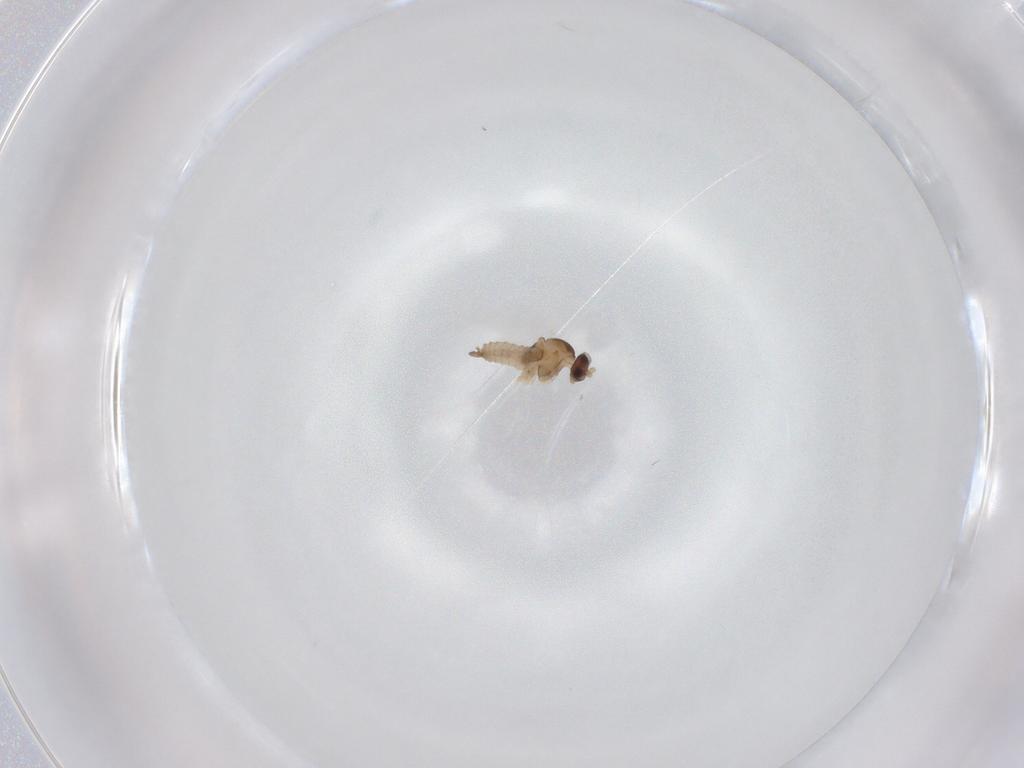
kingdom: Animalia
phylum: Arthropoda
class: Insecta
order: Diptera
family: Cecidomyiidae
